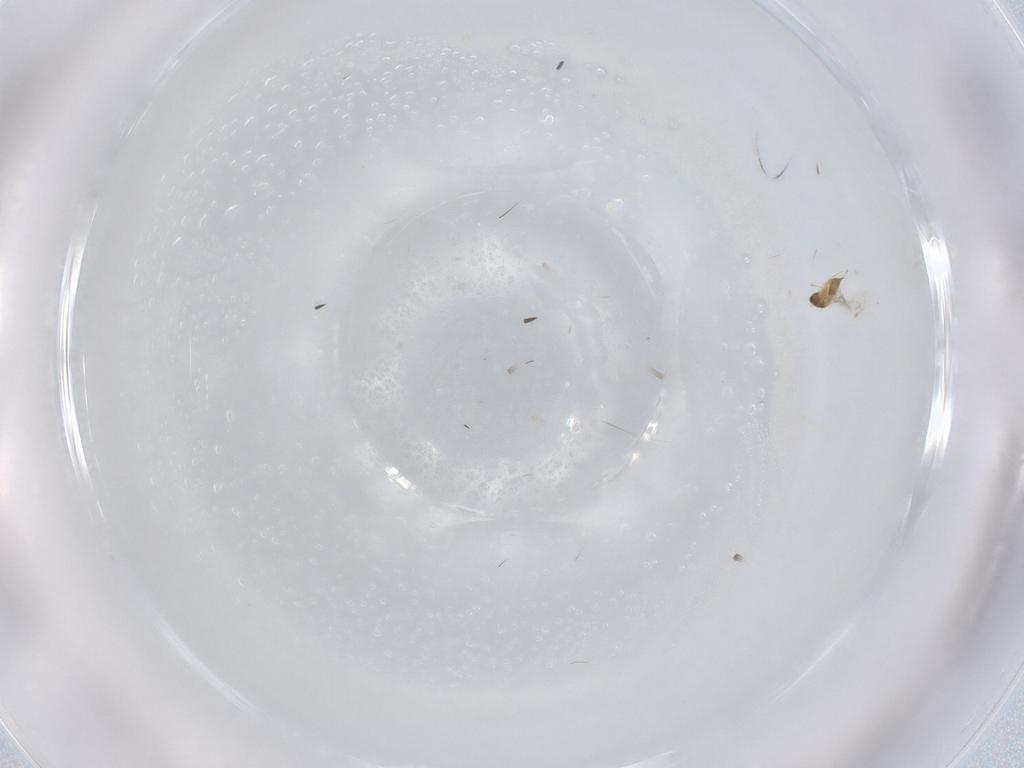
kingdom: Animalia
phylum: Arthropoda
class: Insecta
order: Hymenoptera
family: Mymaridae
